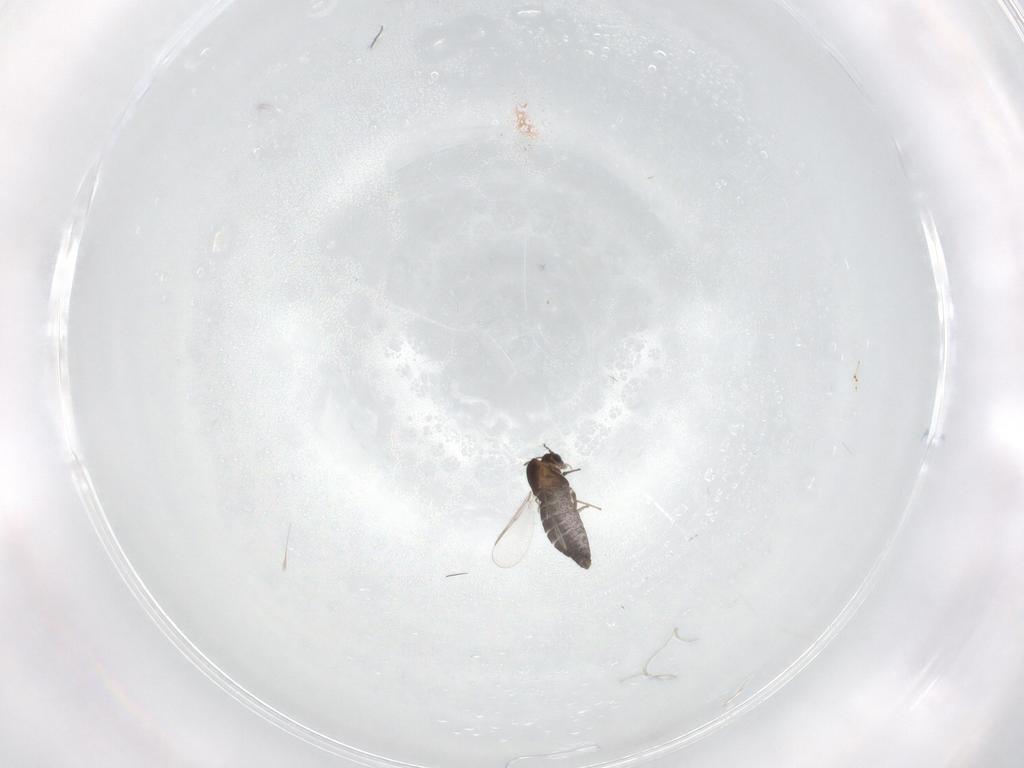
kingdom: Animalia
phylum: Arthropoda
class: Insecta
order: Diptera
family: Chironomidae
